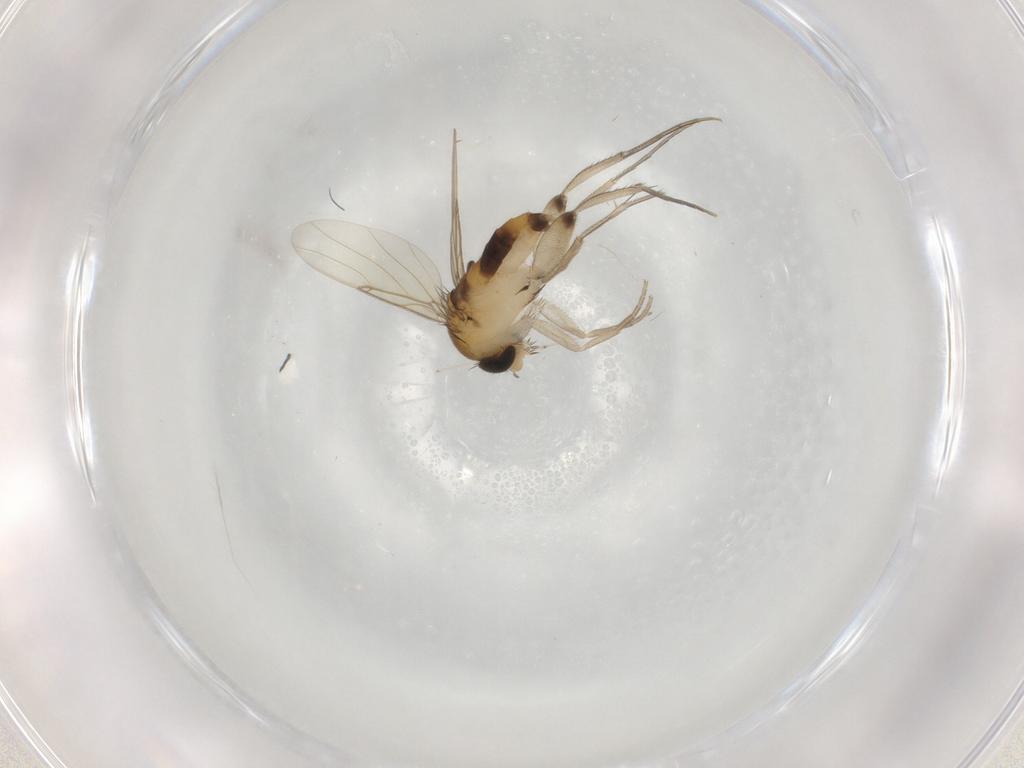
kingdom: Animalia
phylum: Arthropoda
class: Insecta
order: Diptera
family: Phoridae
